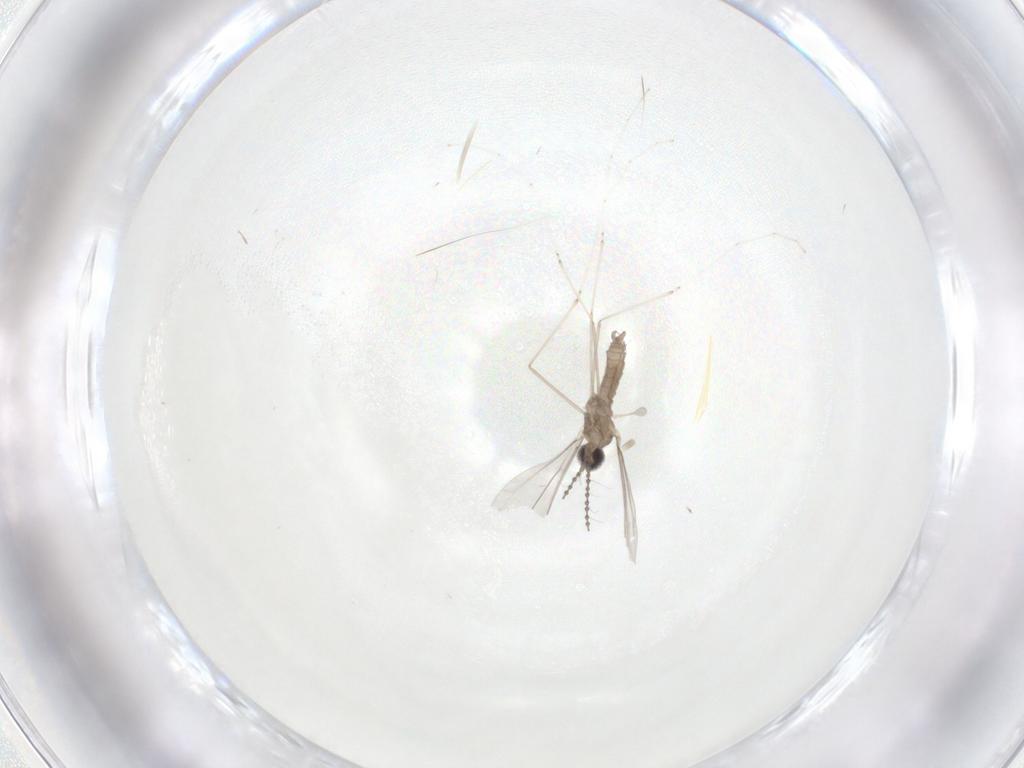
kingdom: Animalia
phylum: Arthropoda
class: Insecta
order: Diptera
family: Cecidomyiidae
